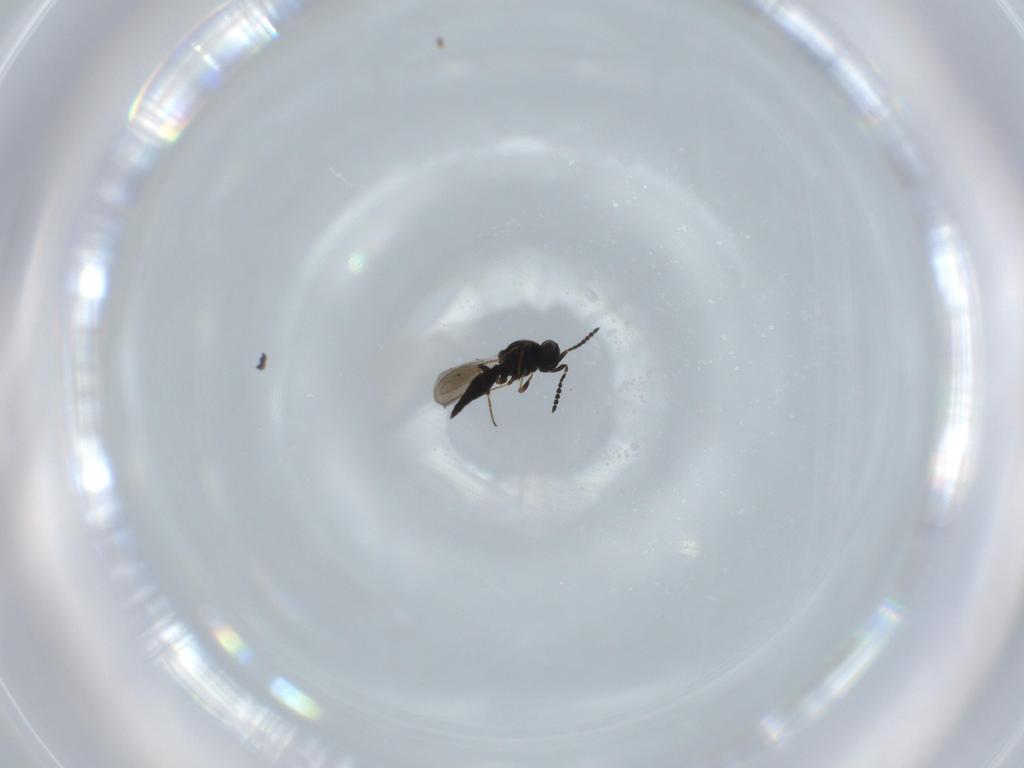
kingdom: Animalia
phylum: Arthropoda
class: Insecta
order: Hymenoptera
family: Platygastridae
